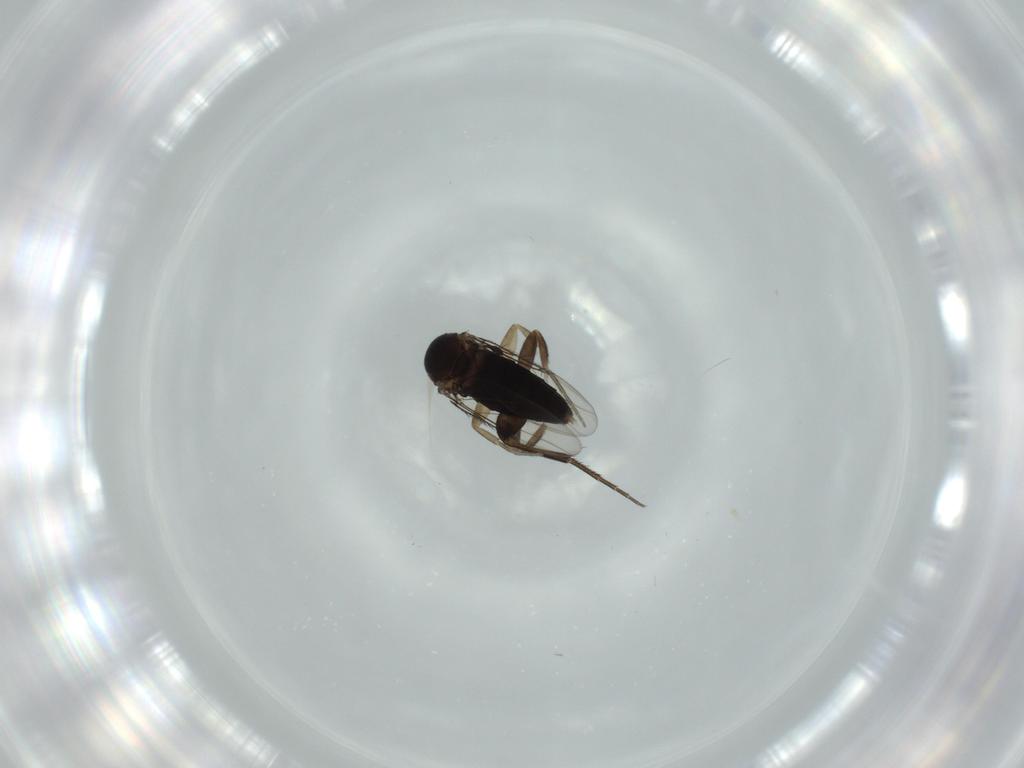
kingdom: Animalia
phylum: Arthropoda
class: Insecta
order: Diptera
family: Phoridae
